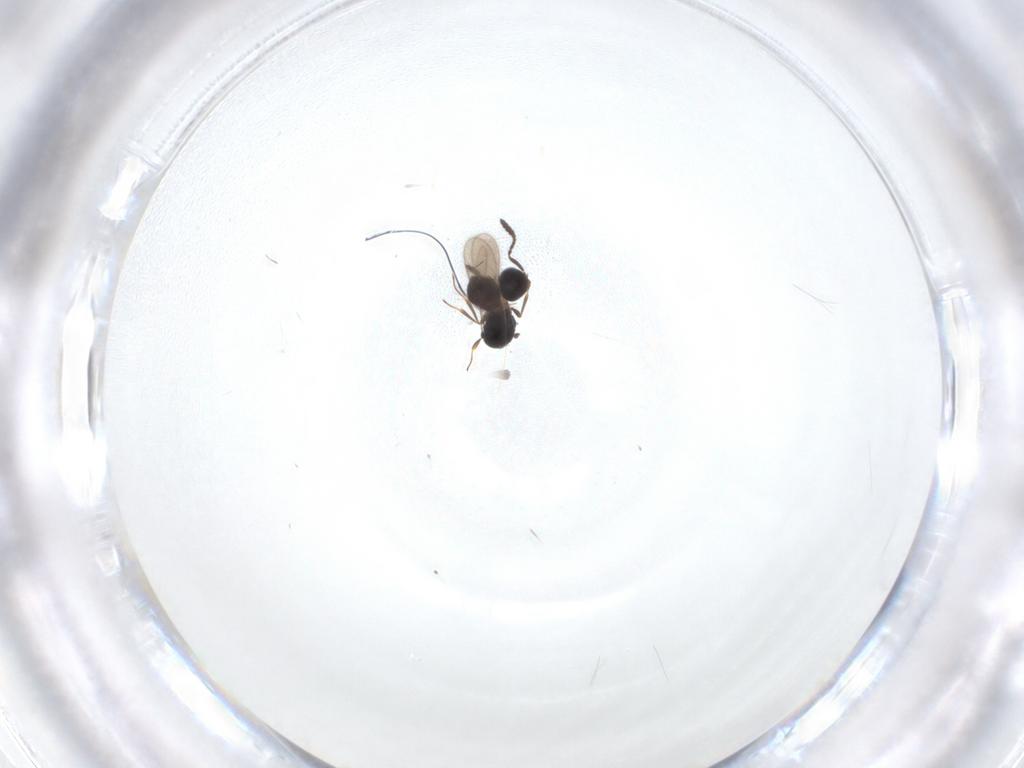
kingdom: Animalia
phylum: Arthropoda
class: Insecta
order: Hymenoptera
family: Scelionidae
